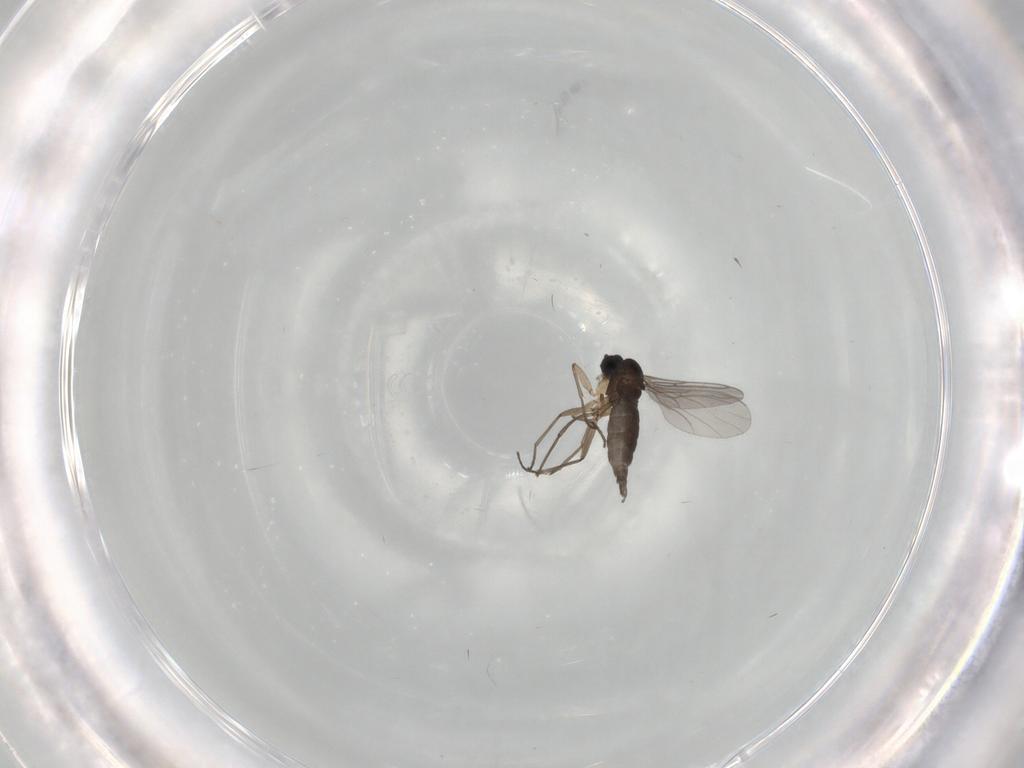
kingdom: Animalia
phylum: Arthropoda
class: Insecta
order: Diptera
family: Sciaridae
